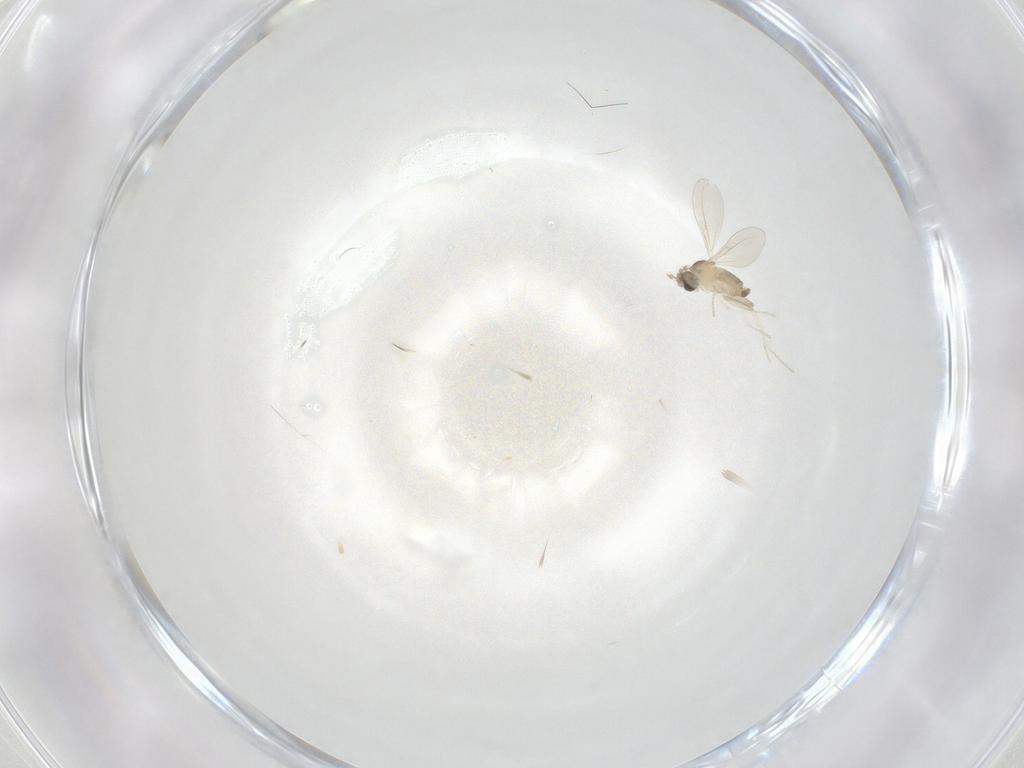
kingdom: Animalia
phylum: Arthropoda
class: Insecta
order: Diptera
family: Cecidomyiidae
